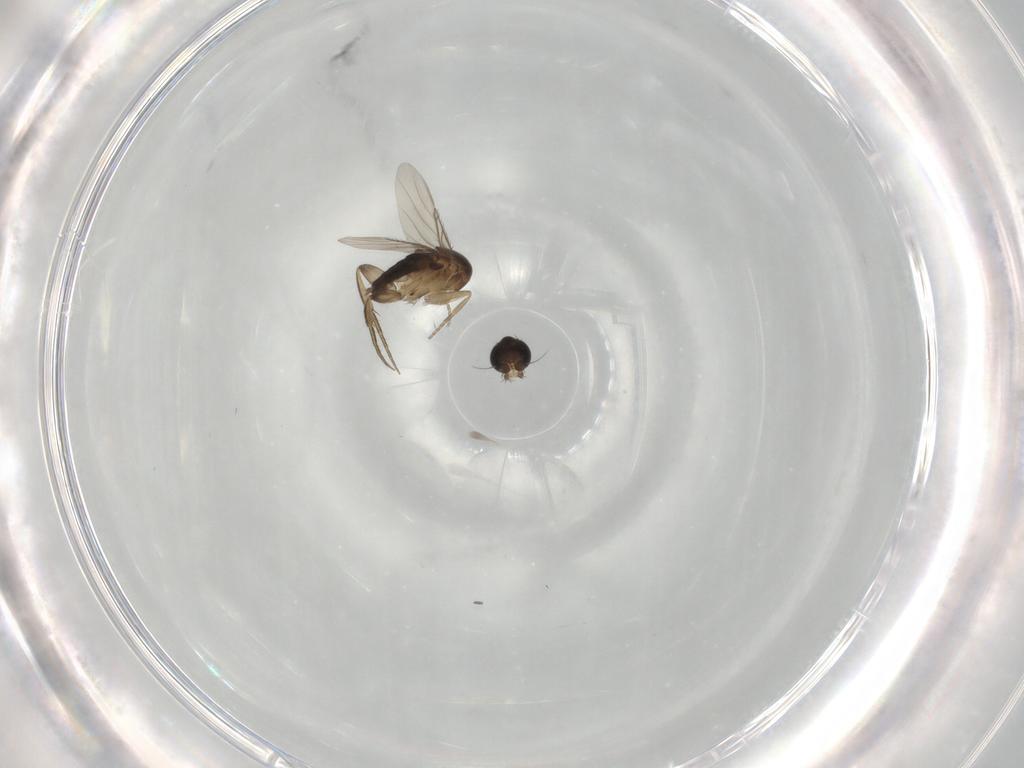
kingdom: Animalia
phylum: Arthropoda
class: Insecta
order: Diptera
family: Phoridae
